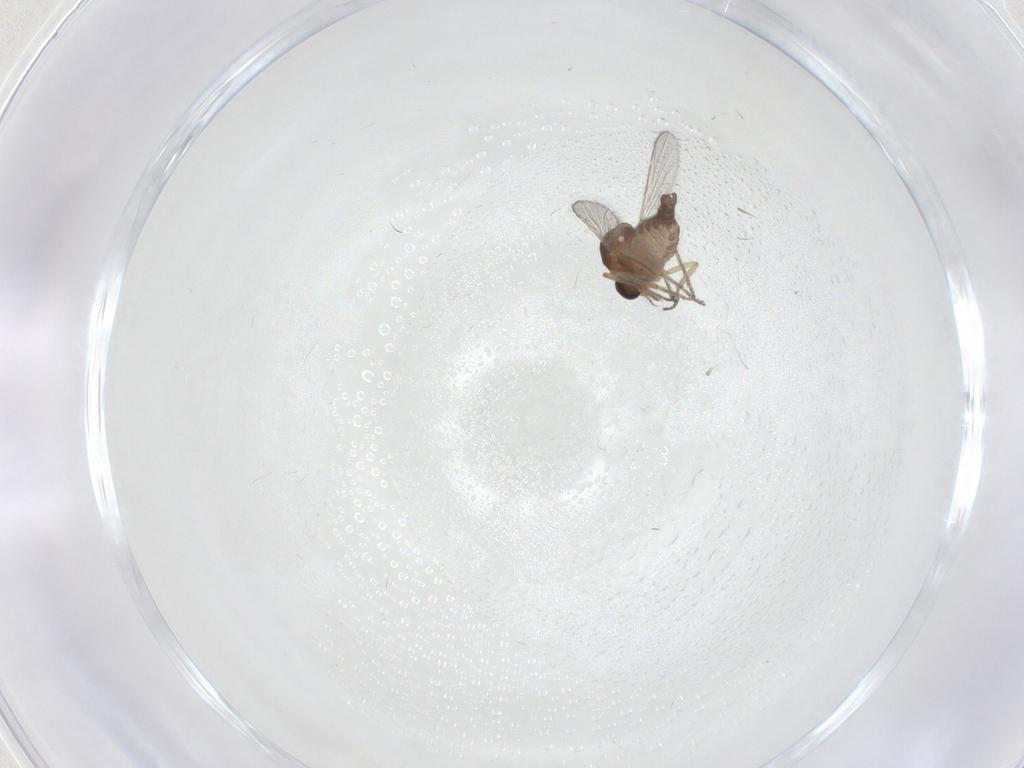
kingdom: Animalia
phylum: Arthropoda
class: Insecta
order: Diptera
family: Ceratopogonidae
